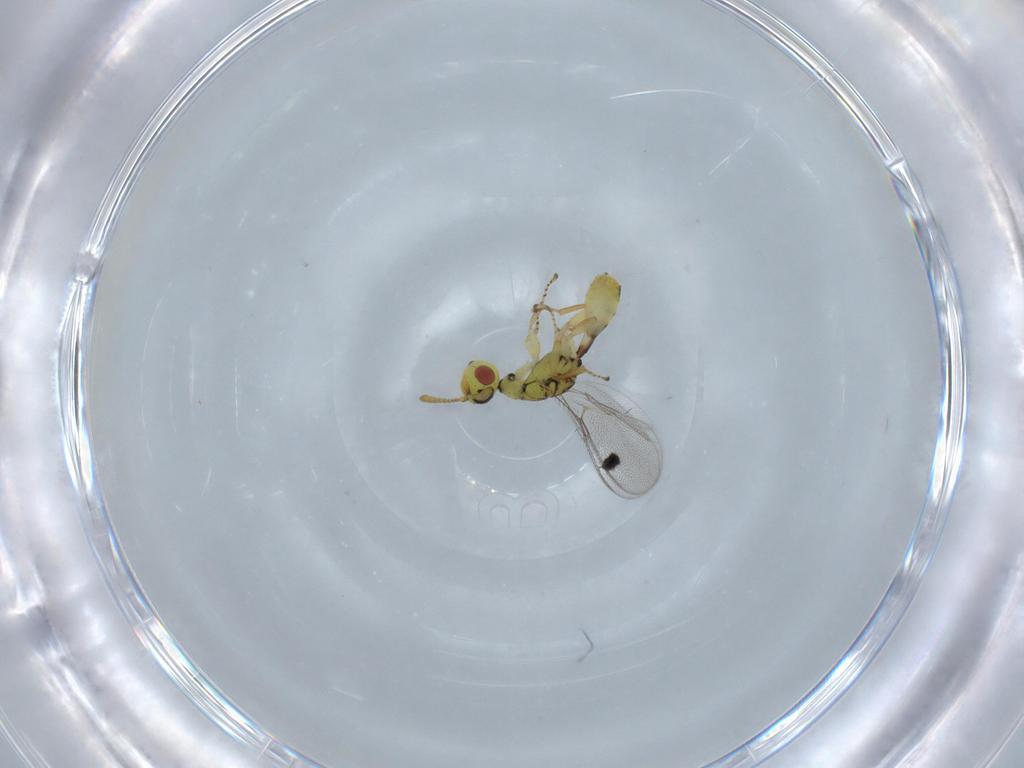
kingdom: Animalia
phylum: Arthropoda
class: Insecta
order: Hymenoptera
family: Megastigmidae
